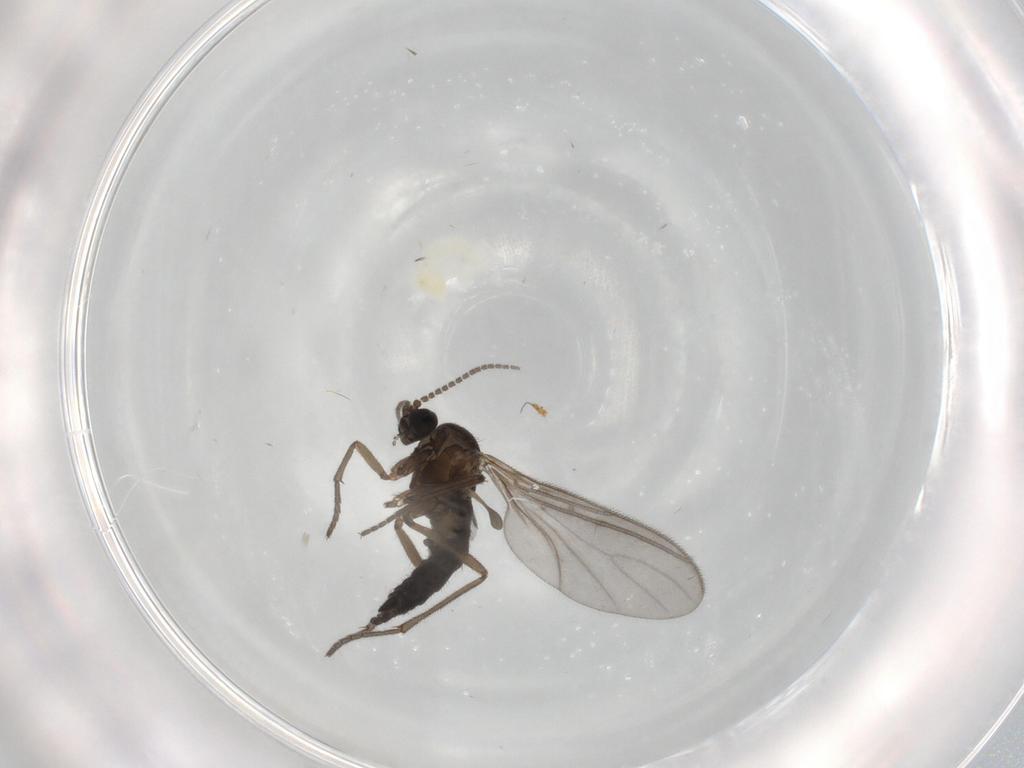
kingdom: Animalia
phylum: Arthropoda
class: Insecta
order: Diptera
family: Sciaridae
